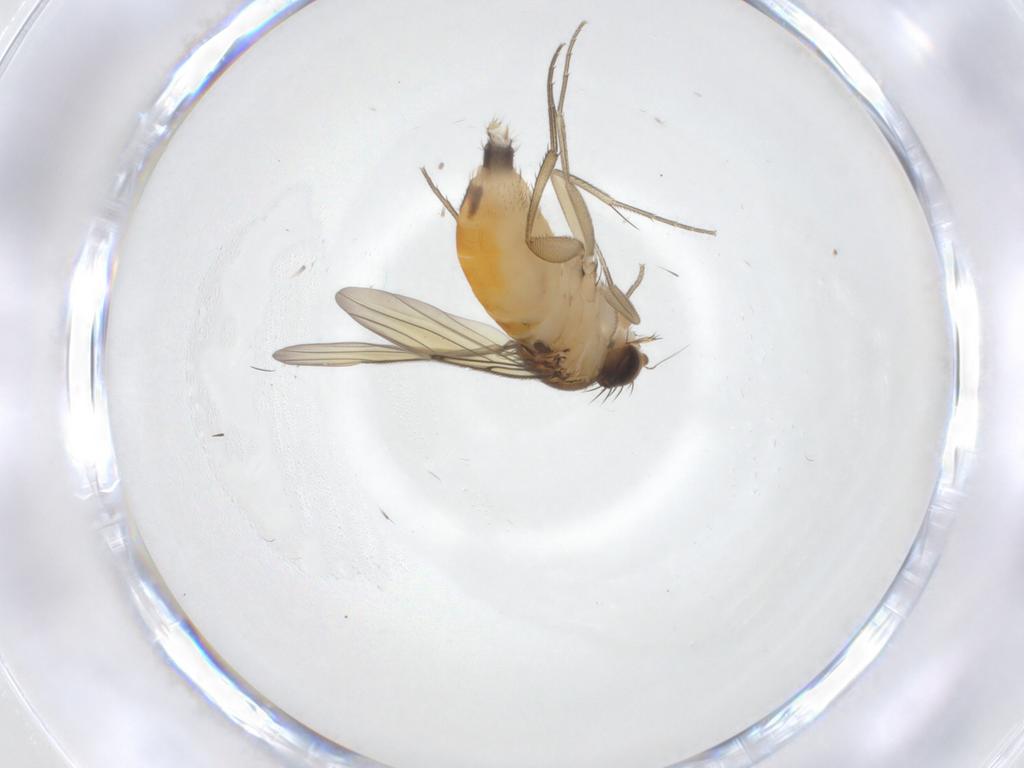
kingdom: Animalia
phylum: Arthropoda
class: Insecta
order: Diptera
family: Phoridae
